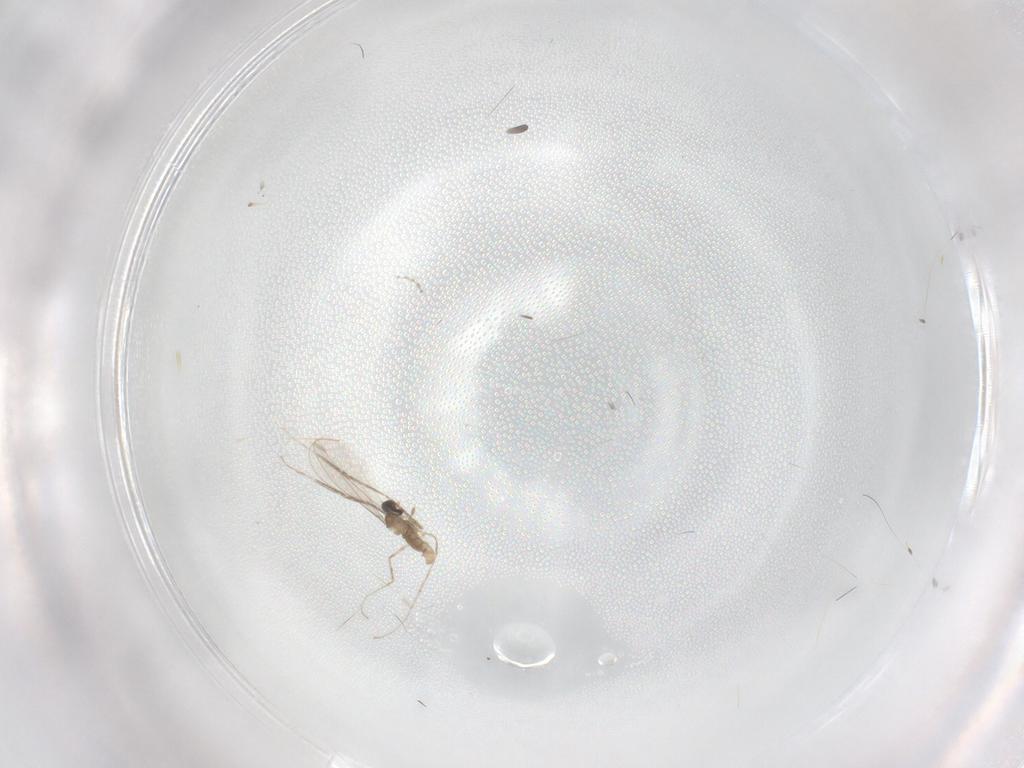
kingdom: Animalia
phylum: Arthropoda
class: Insecta
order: Diptera
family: Cecidomyiidae
